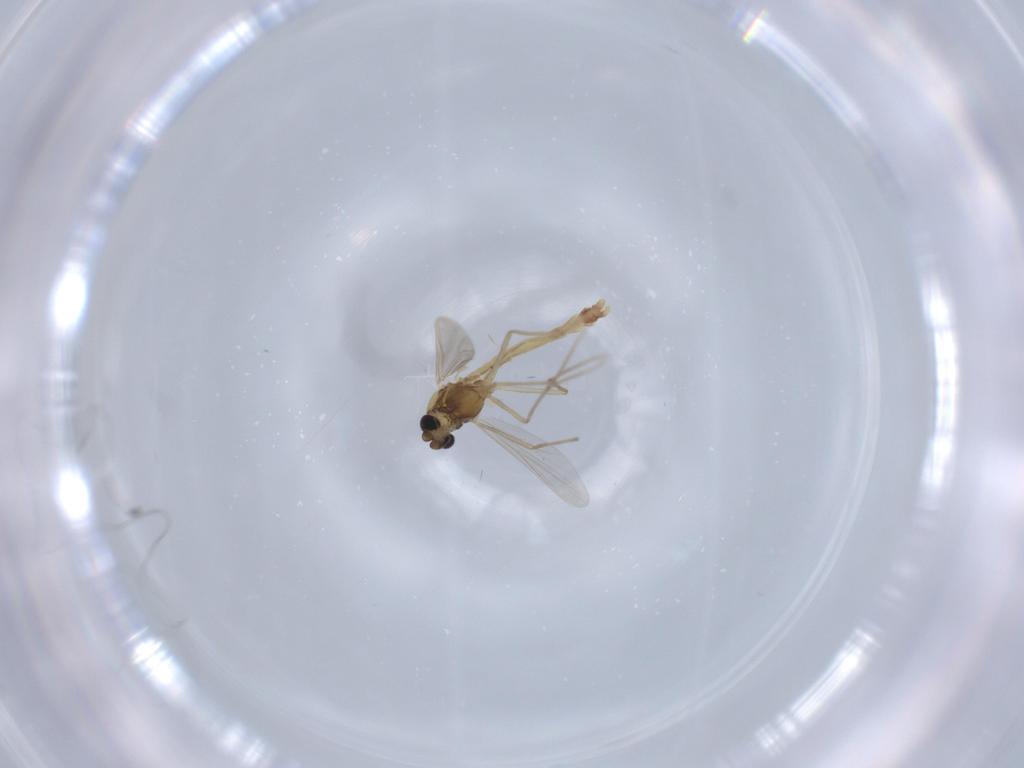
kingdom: Animalia
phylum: Arthropoda
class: Insecta
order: Diptera
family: Chironomidae
